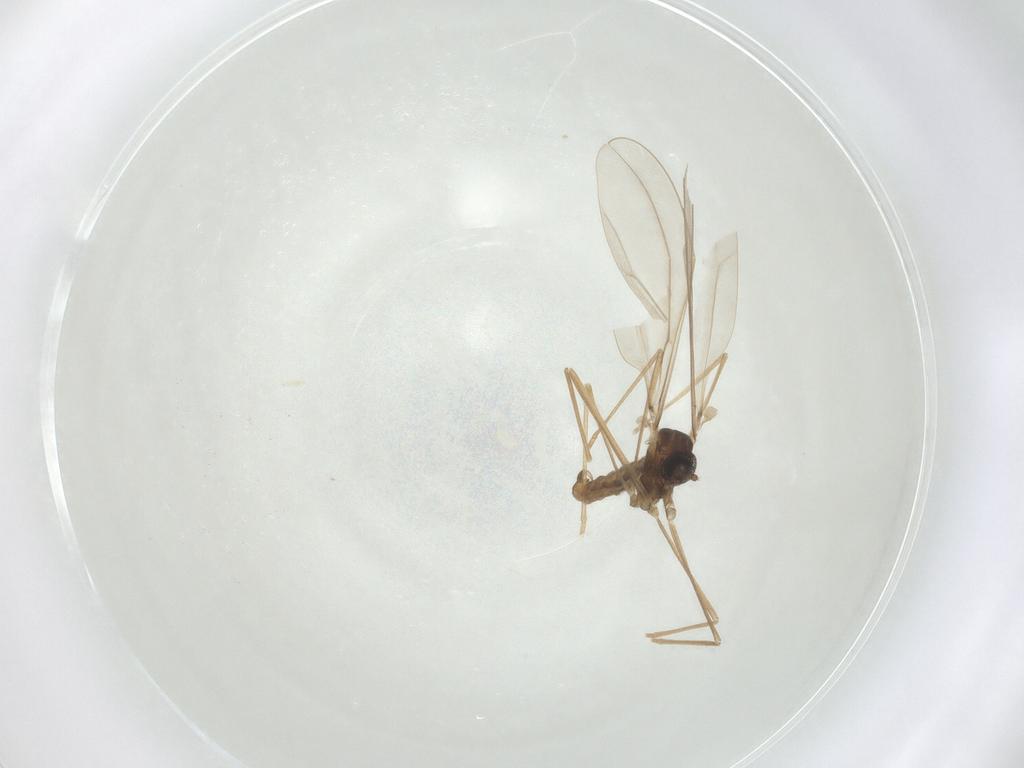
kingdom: Animalia
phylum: Arthropoda
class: Insecta
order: Diptera
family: Cecidomyiidae
